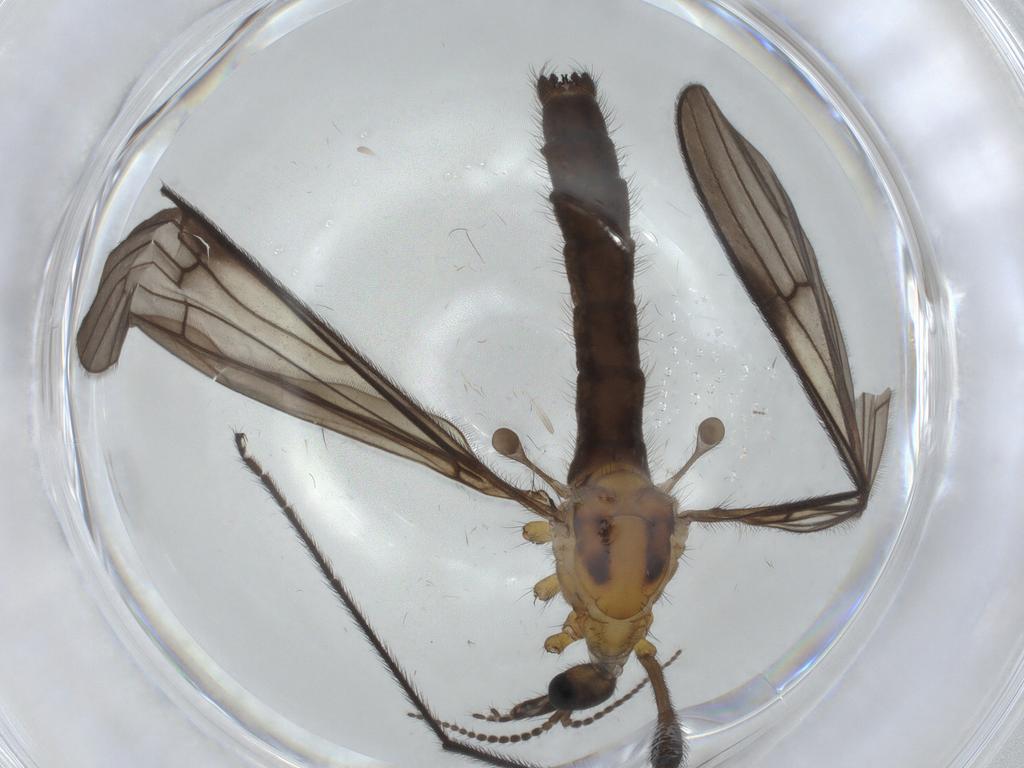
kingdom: Animalia
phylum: Arthropoda
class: Insecta
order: Diptera
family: Limoniidae
